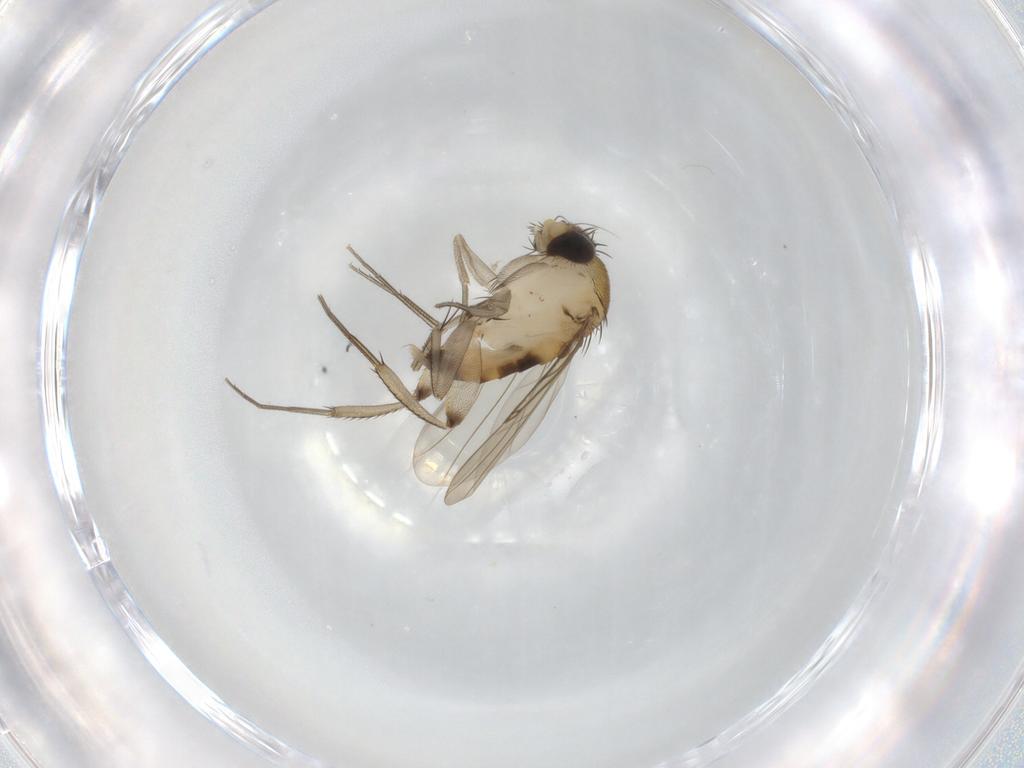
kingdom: Animalia
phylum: Arthropoda
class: Insecta
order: Diptera
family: Phoridae
